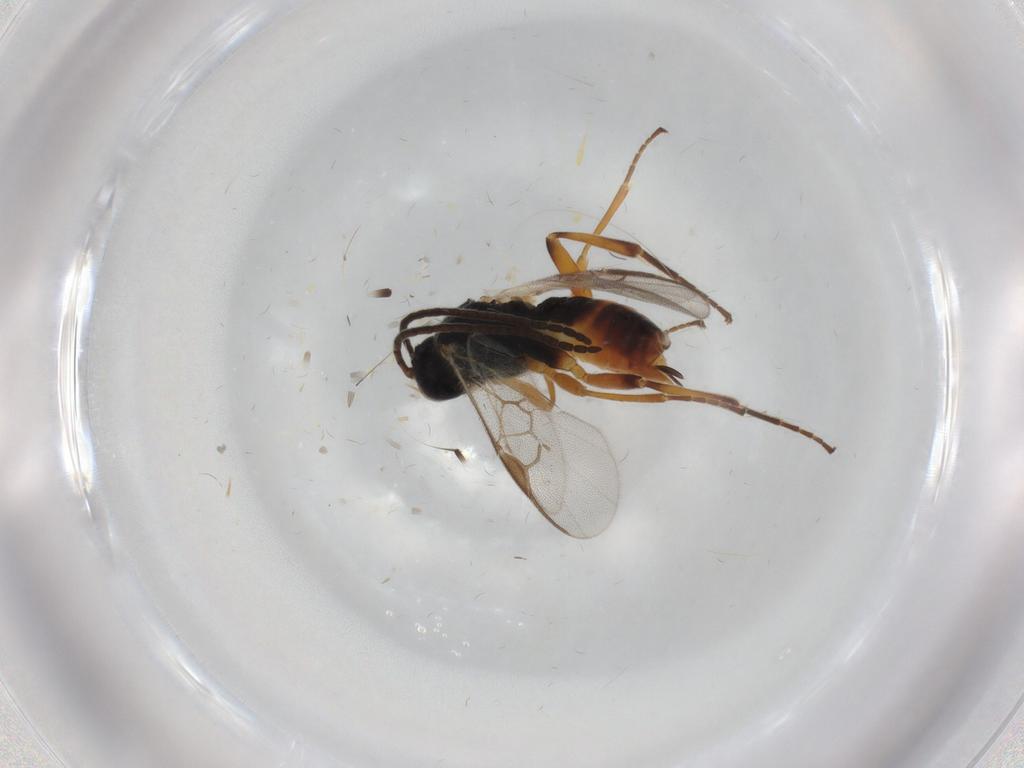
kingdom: Animalia
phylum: Arthropoda
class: Insecta
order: Hymenoptera
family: Braconidae
